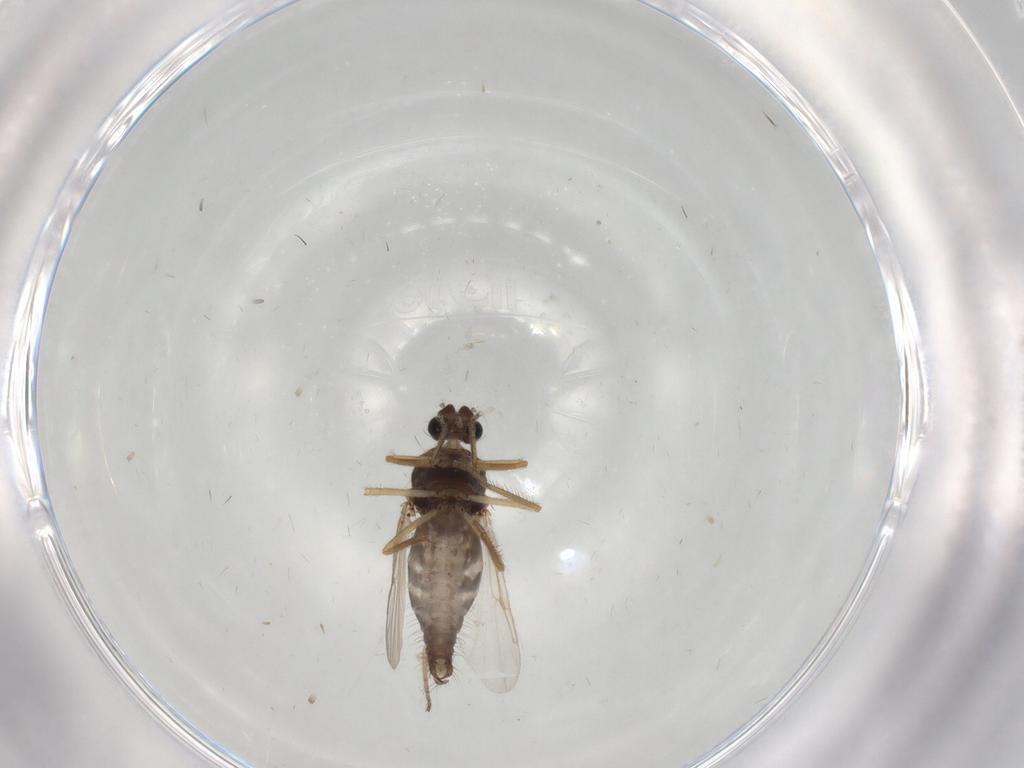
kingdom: Animalia
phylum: Arthropoda
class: Insecta
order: Diptera
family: Ceratopogonidae
